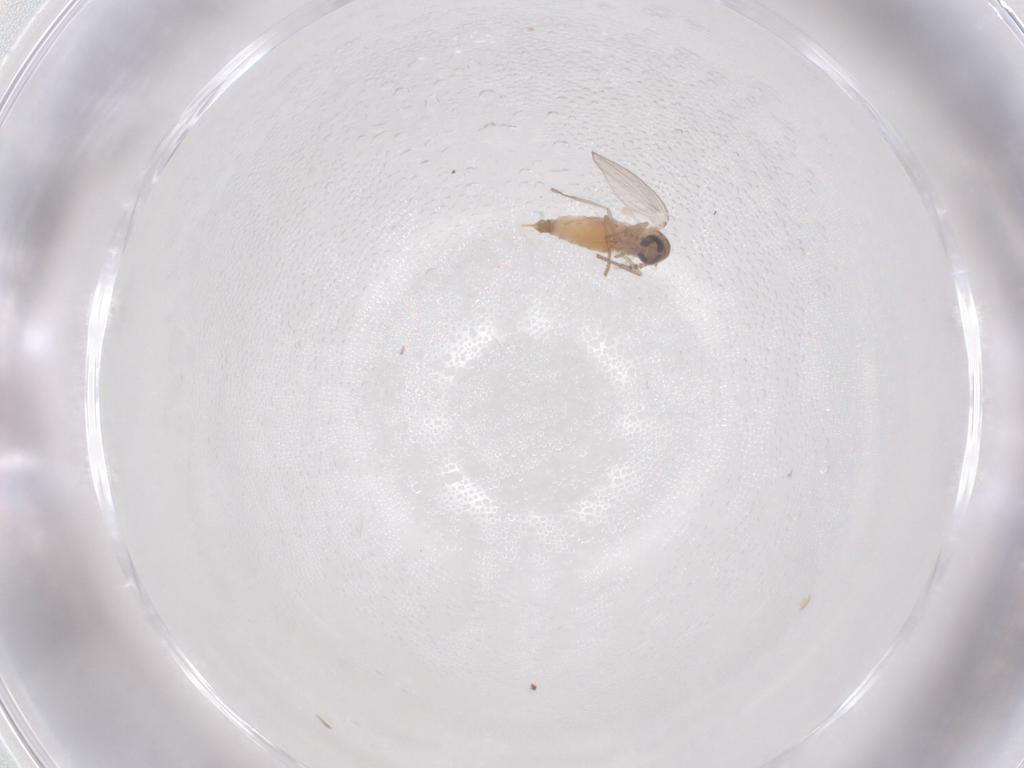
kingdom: Animalia
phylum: Arthropoda
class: Insecta
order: Diptera
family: Psychodidae
